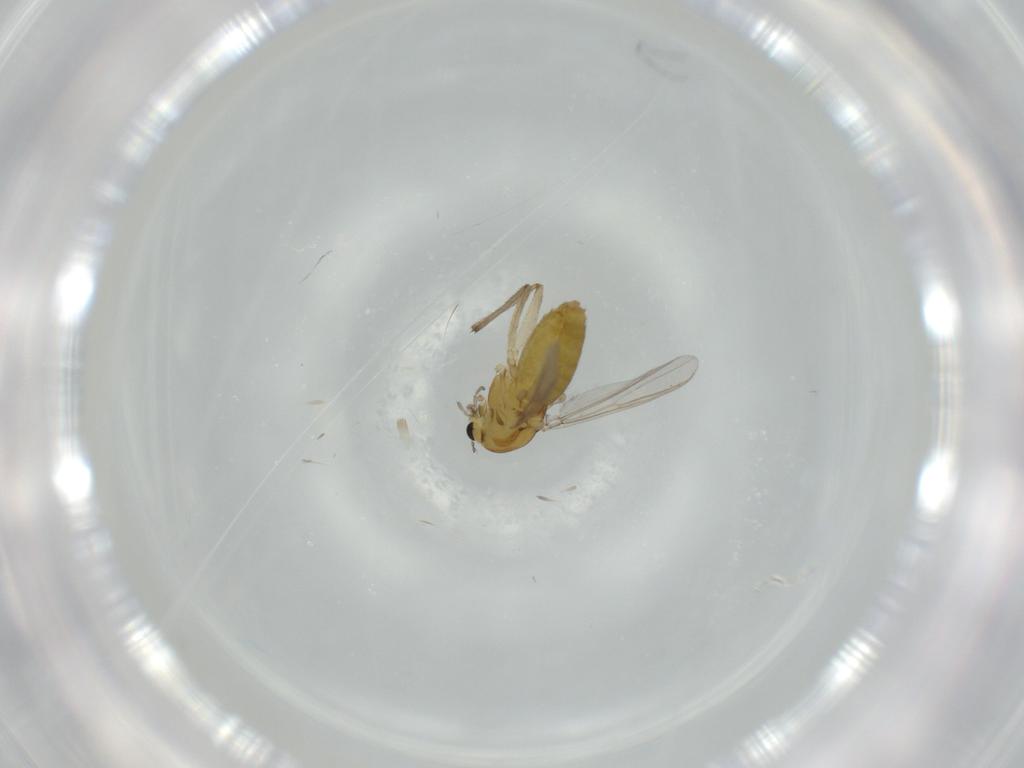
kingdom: Animalia
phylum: Arthropoda
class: Insecta
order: Diptera
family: Chironomidae
